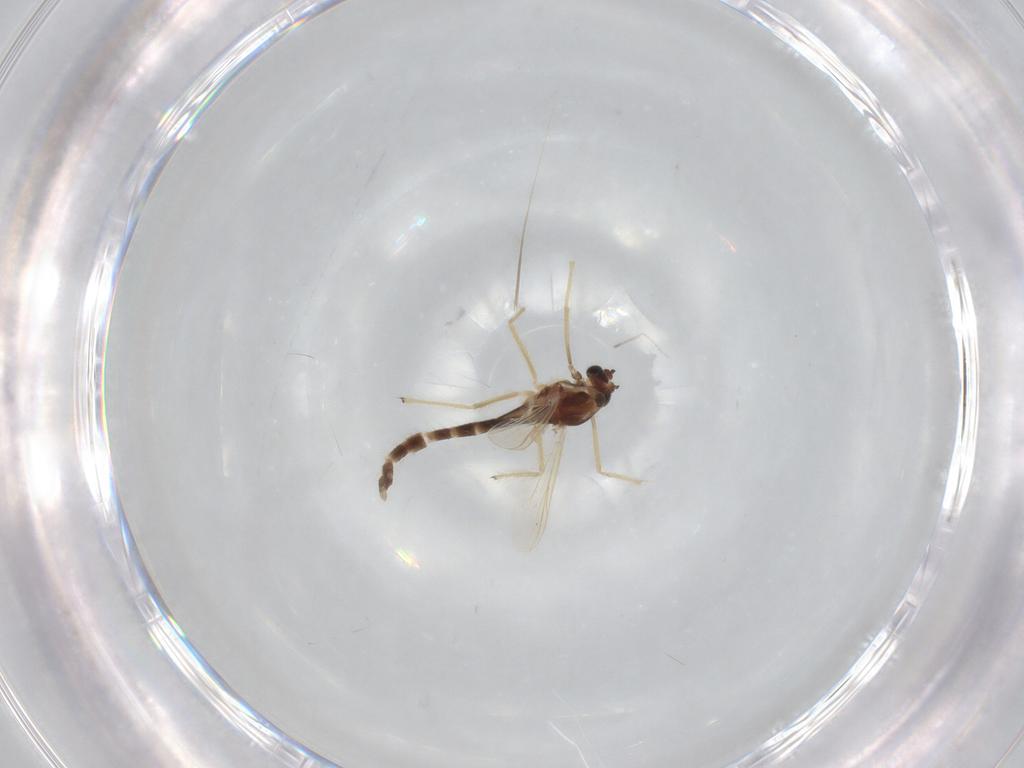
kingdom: Animalia
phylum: Arthropoda
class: Insecta
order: Diptera
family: Chironomidae
